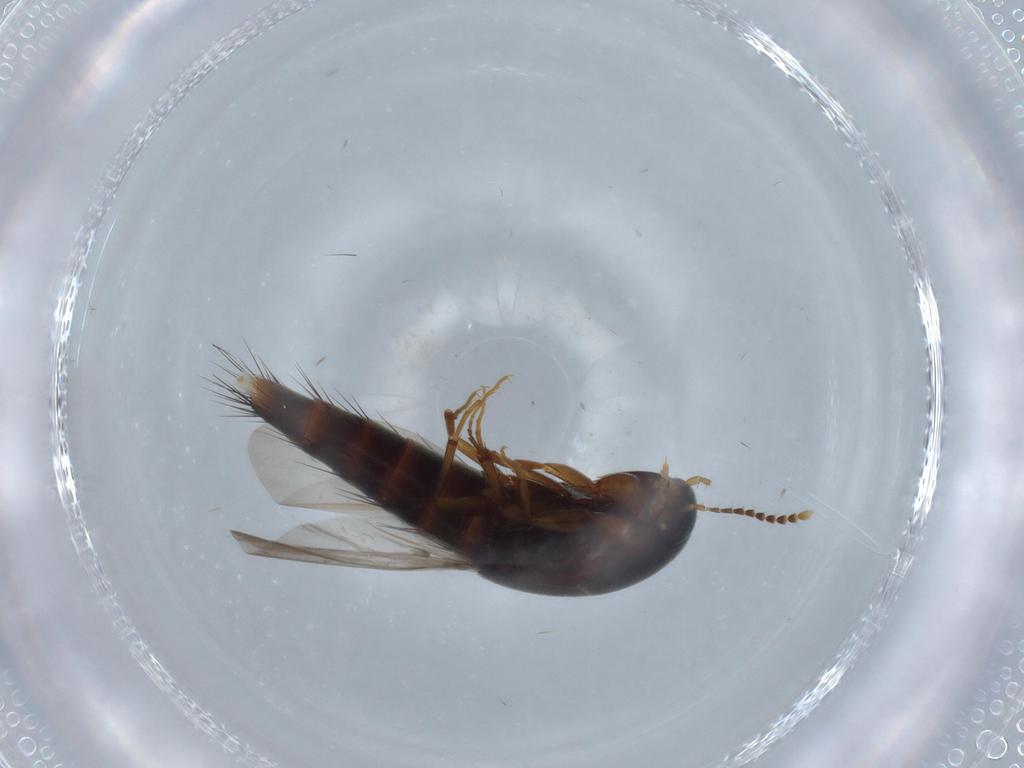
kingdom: Animalia
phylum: Arthropoda
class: Insecta
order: Coleoptera
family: Staphylinidae
